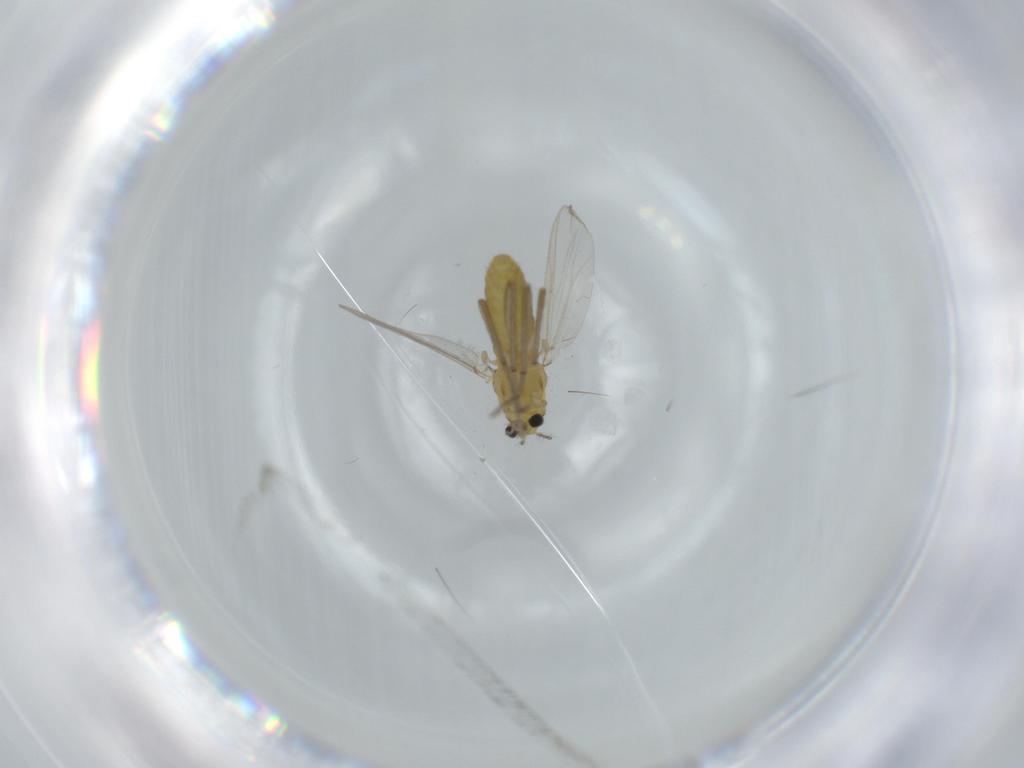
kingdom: Animalia
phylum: Arthropoda
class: Insecta
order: Diptera
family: Chironomidae
